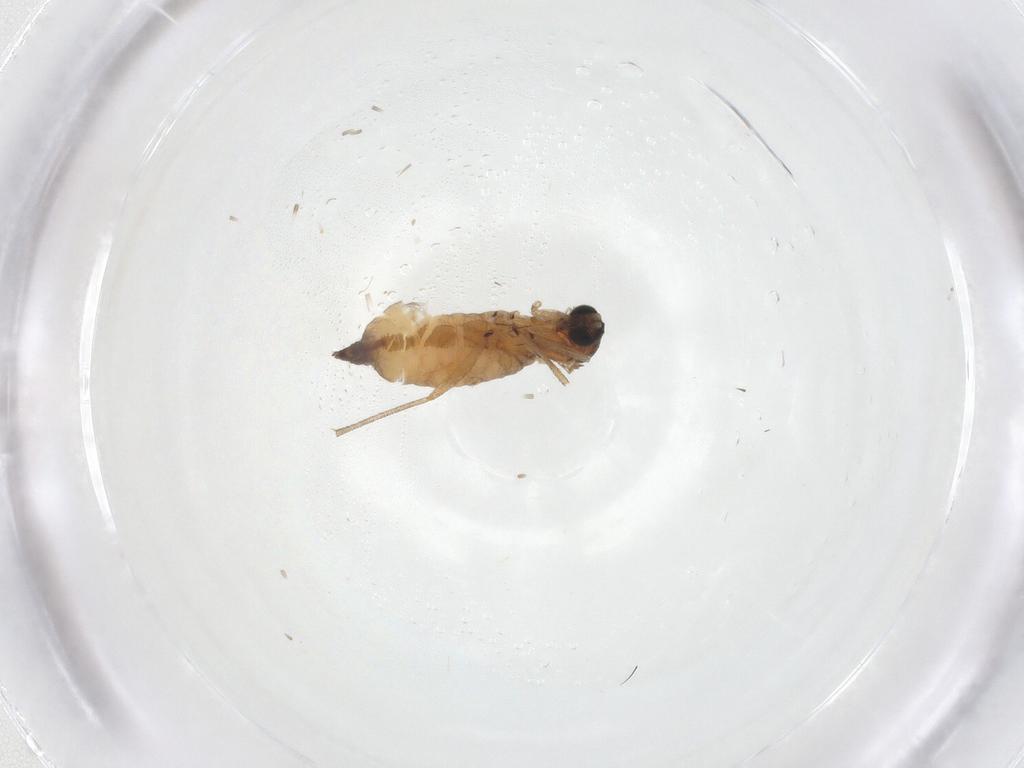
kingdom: Animalia
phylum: Arthropoda
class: Insecta
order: Diptera
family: Sciaridae
